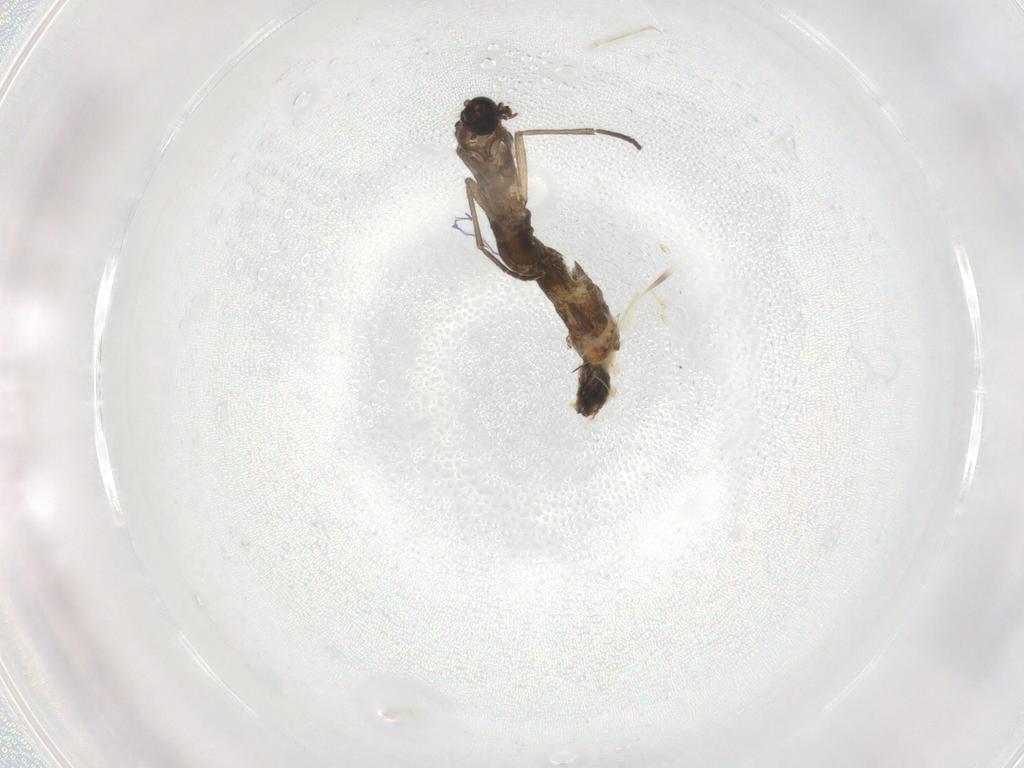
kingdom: Animalia
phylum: Arthropoda
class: Insecta
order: Diptera
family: Sciaridae
